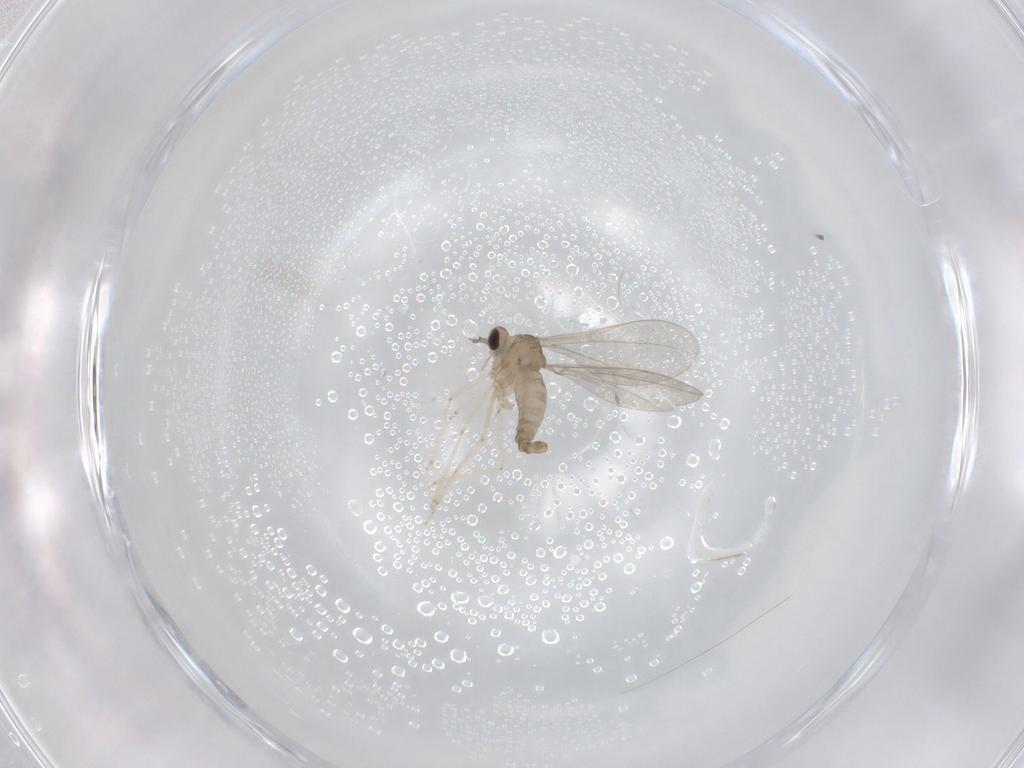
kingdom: Animalia
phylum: Arthropoda
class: Insecta
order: Diptera
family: Cecidomyiidae
